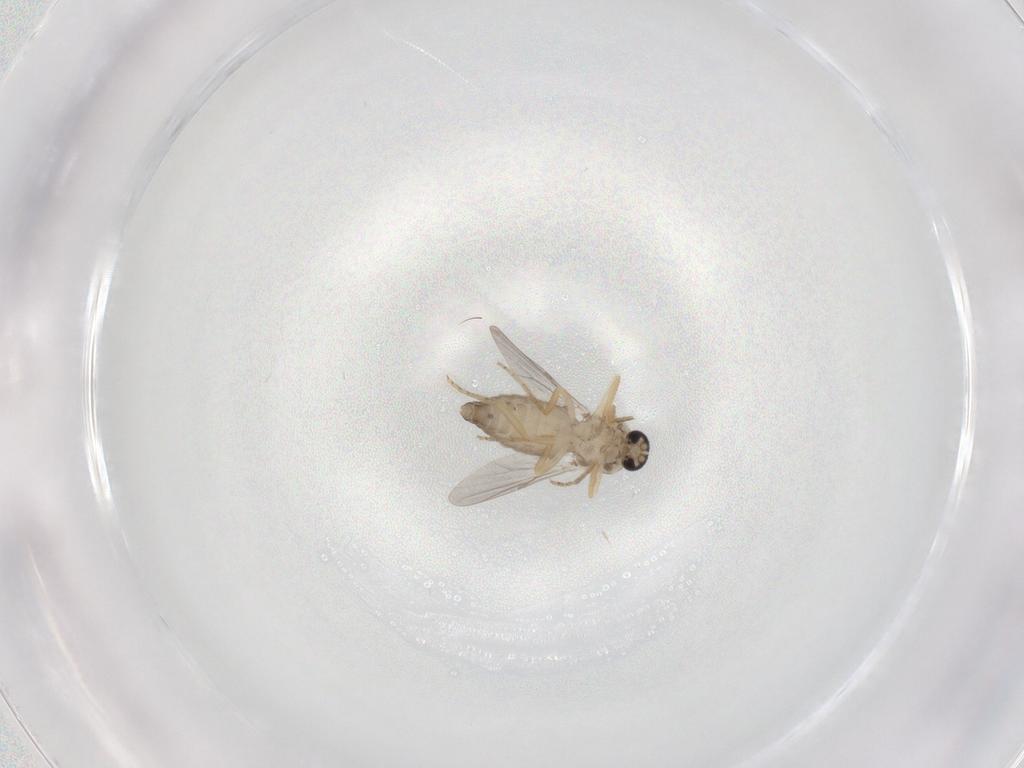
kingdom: Animalia
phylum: Arthropoda
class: Insecta
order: Diptera
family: Ceratopogonidae
